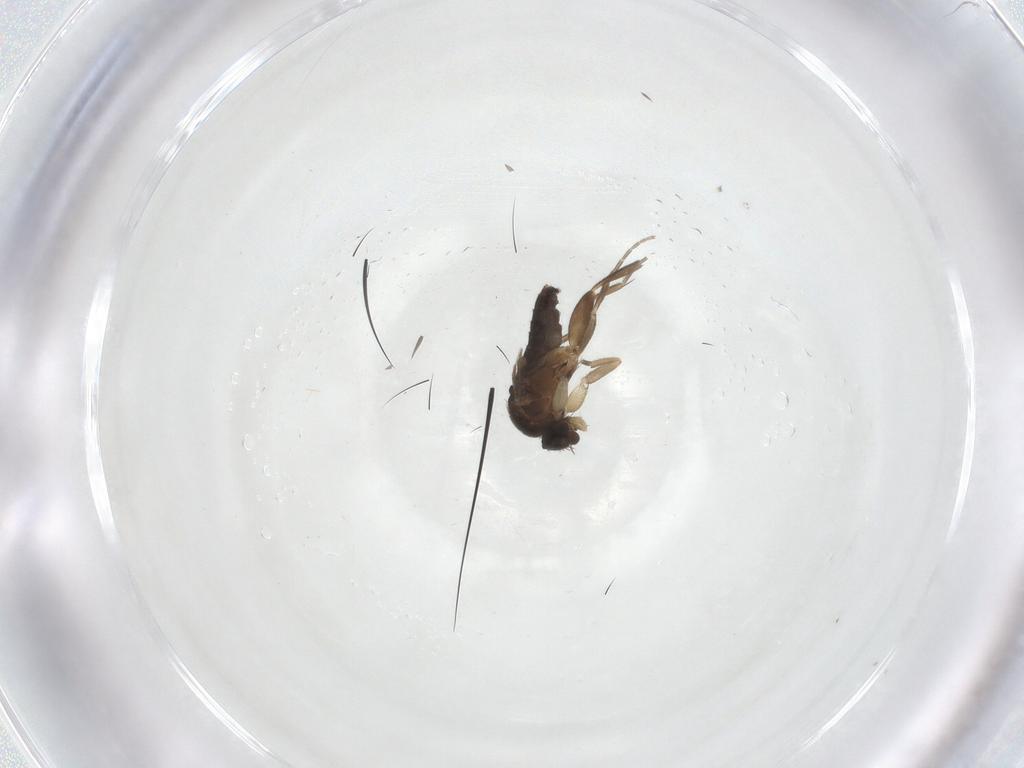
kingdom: Animalia
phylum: Arthropoda
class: Insecta
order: Diptera
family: Phoridae
